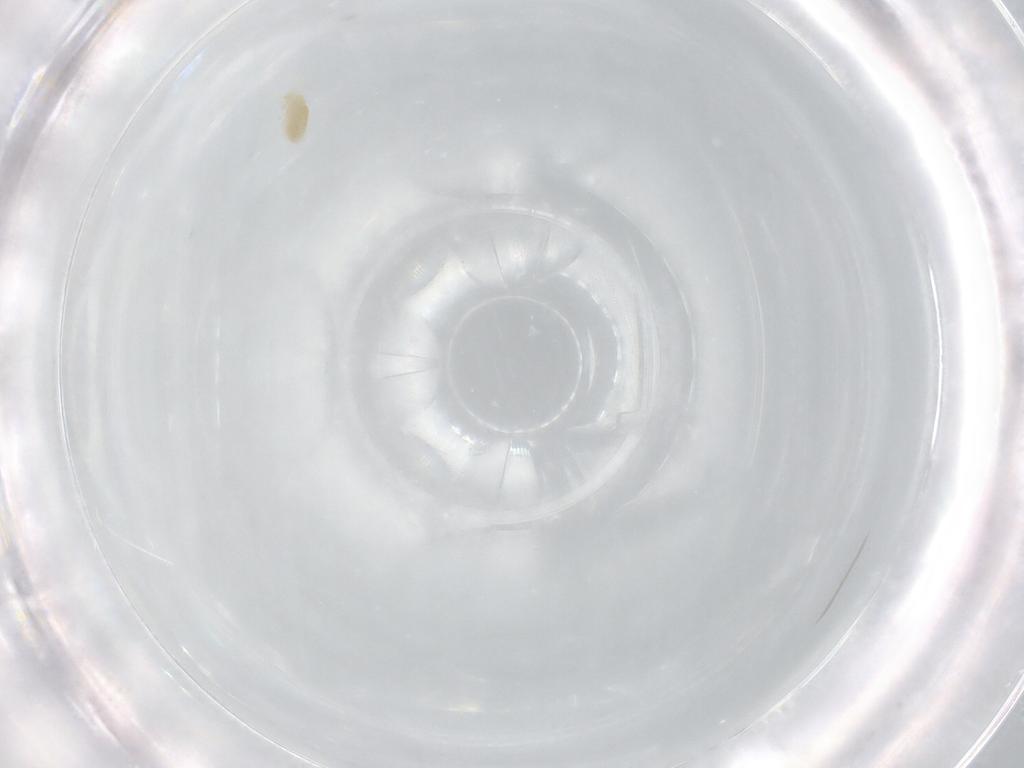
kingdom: Animalia
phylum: Arthropoda
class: Arachnida
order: Trombidiformes
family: Eupodidae
